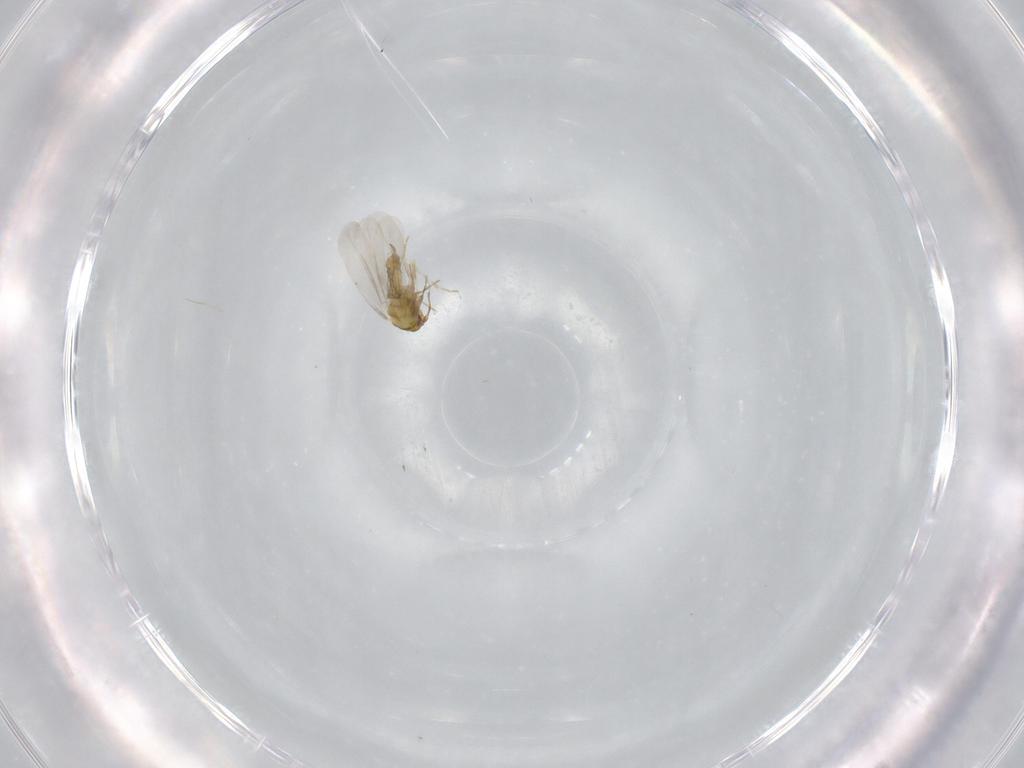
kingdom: Animalia
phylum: Arthropoda
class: Insecta
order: Hemiptera
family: Aleyrodidae
